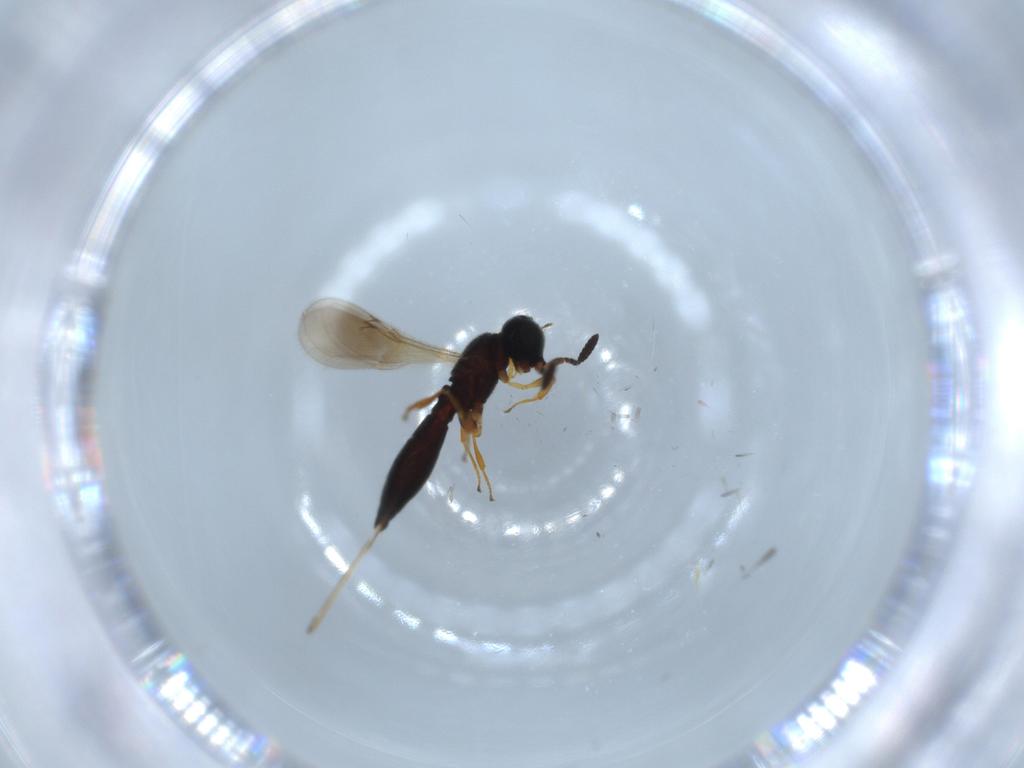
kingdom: Animalia
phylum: Arthropoda
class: Insecta
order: Hymenoptera
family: Scelionidae
